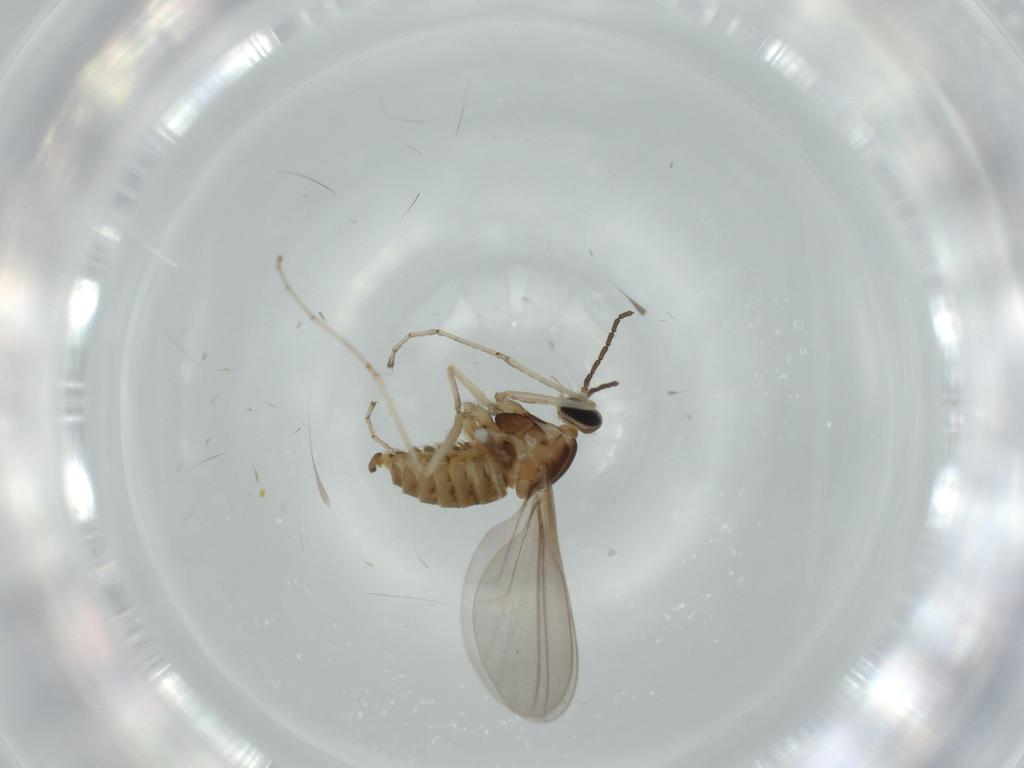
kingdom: Animalia
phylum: Arthropoda
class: Insecta
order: Diptera
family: Cecidomyiidae
